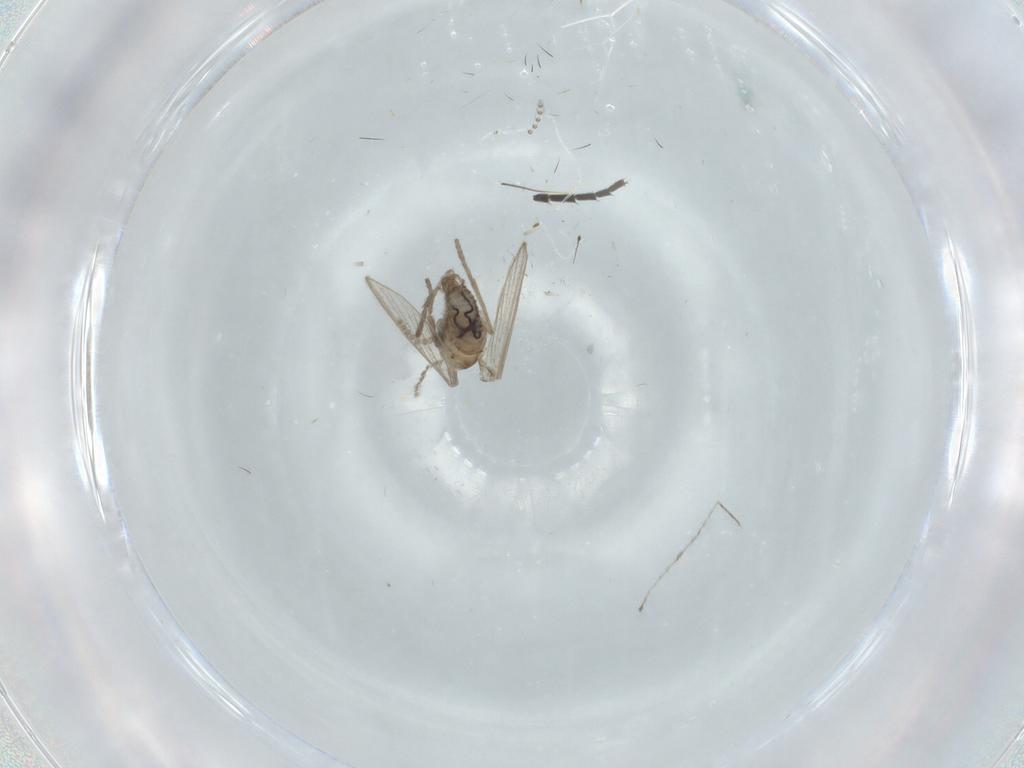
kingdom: Animalia
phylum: Arthropoda
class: Insecta
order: Diptera
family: Psychodidae
